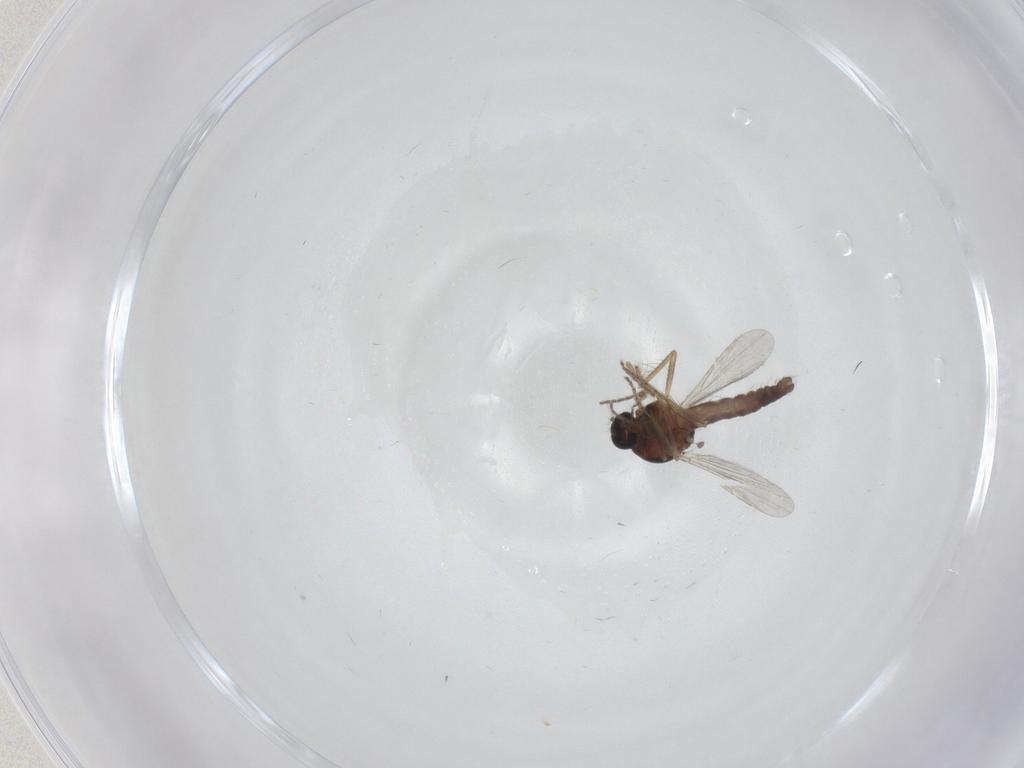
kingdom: Animalia
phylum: Arthropoda
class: Insecta
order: Diptera
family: Ceratopogonidae
